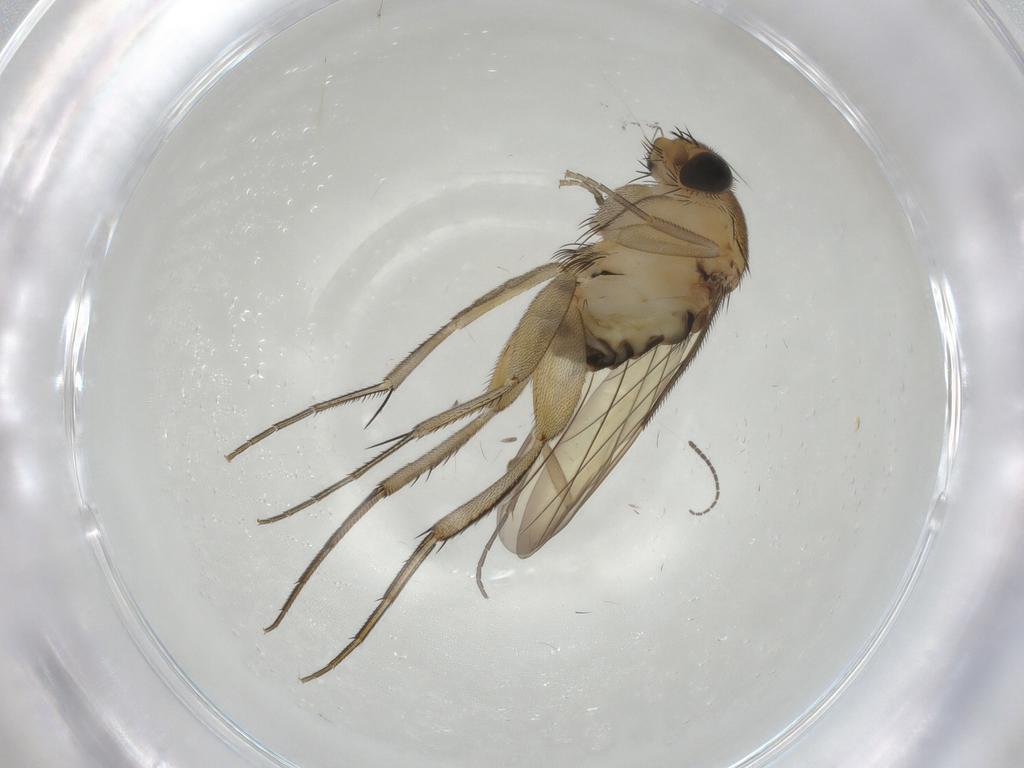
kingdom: Animalia
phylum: Arthropoda
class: Insecta
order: Diptera
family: Phoridae
